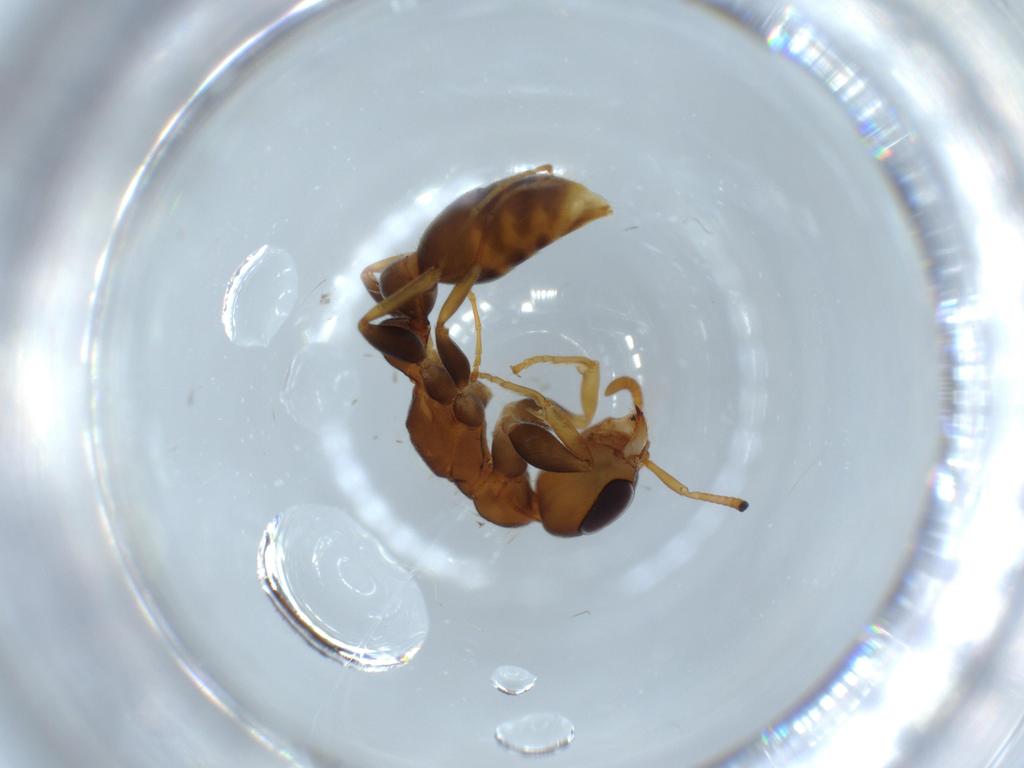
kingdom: Animalia
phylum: Arthropoda
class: Insecta
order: Hymenoptera
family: Formicidae
